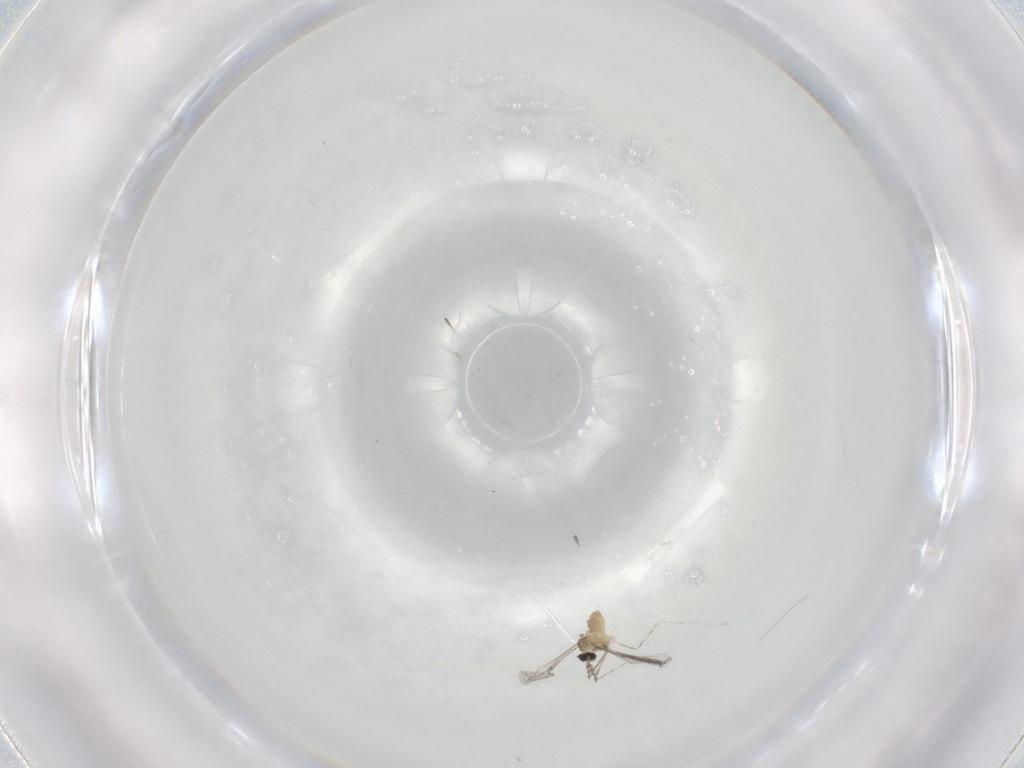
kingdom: Animalia
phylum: Arthropoda
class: Insecta
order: Diptera
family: Cecidomyiidae
